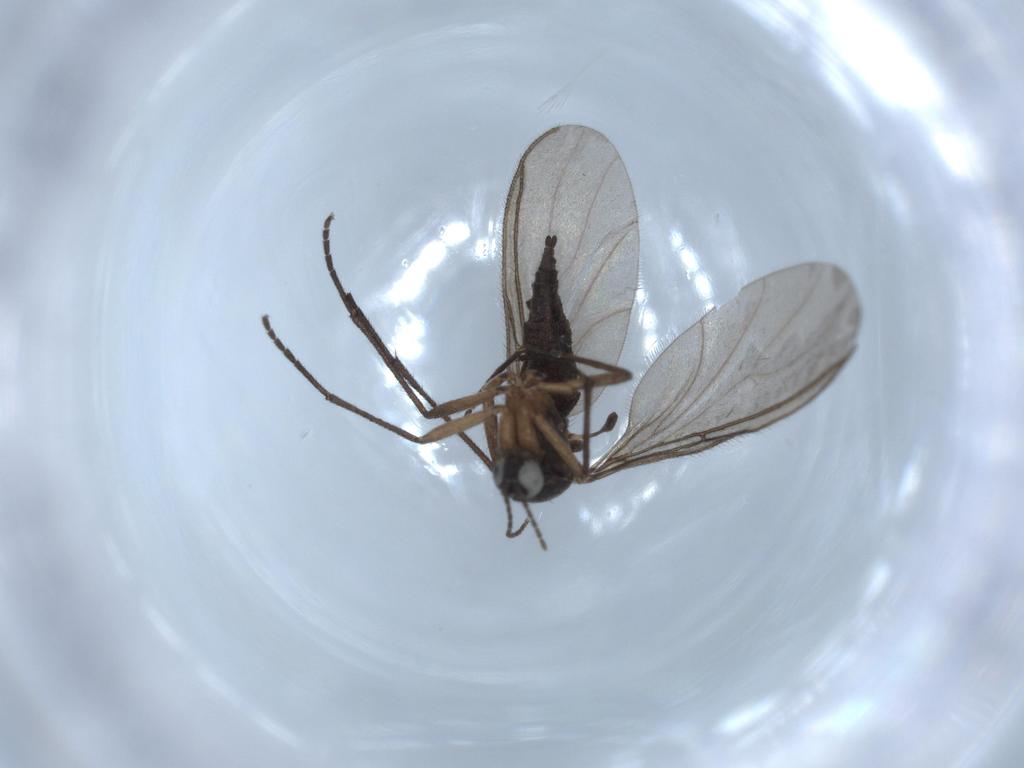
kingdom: Animalia
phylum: Arthropoda
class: Insecta
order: Diptera
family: Sciaridae
